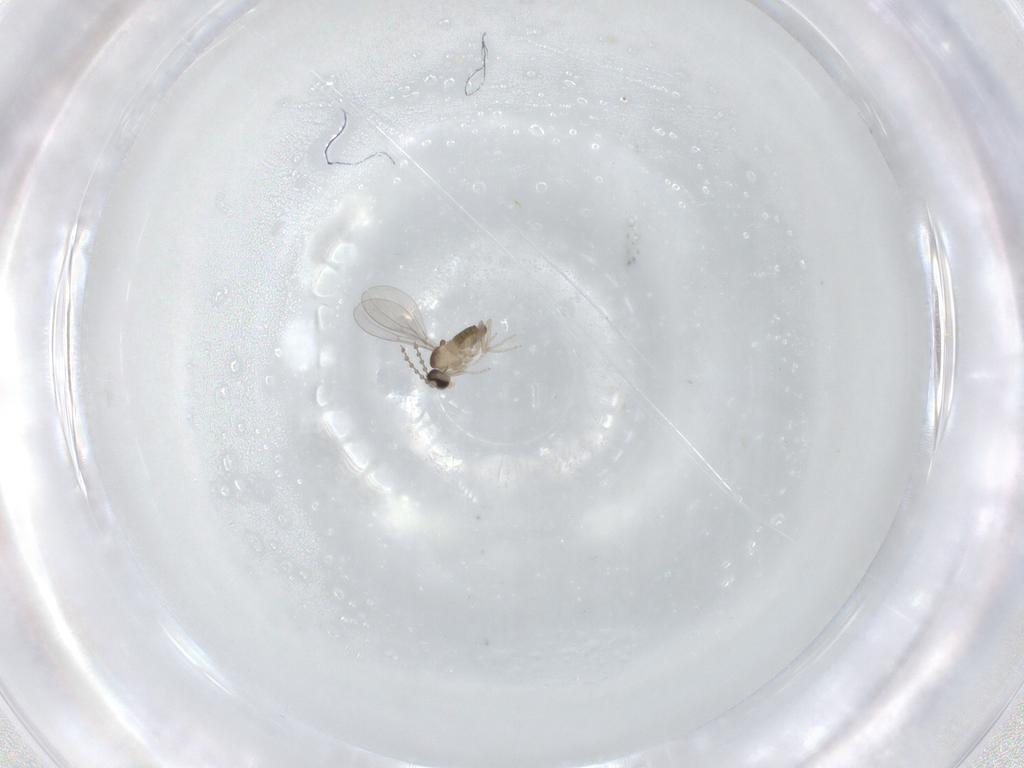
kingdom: Animalia
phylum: Arthropoda
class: Insecta
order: Diptera
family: Cecidomyiidae
